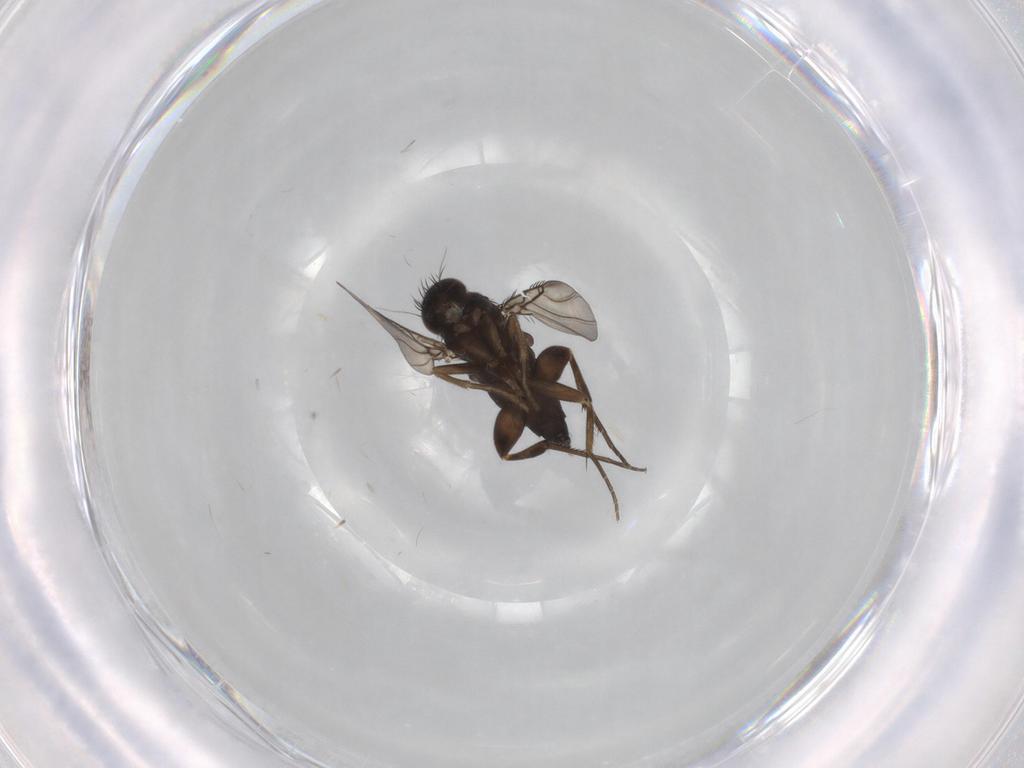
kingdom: Animalia
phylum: Arthropoda
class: Insecta
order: Diptera
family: Phoridae
